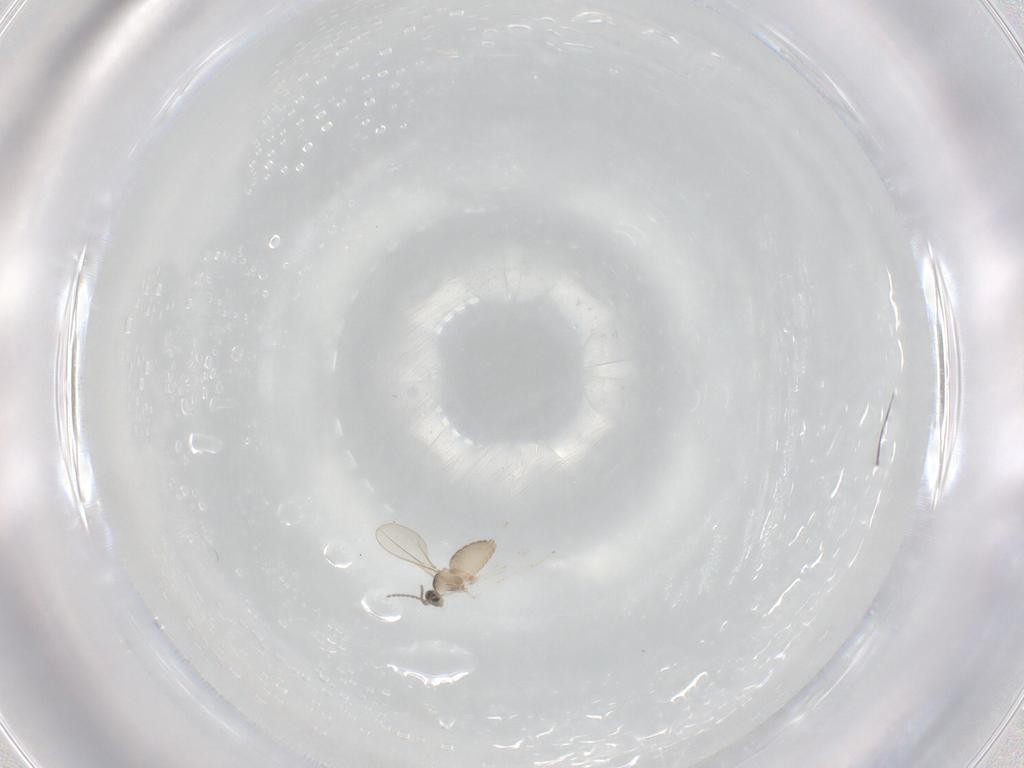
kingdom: Animalia
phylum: Arthropoda
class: Insecta
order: Diptera
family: Dolichopodidae
